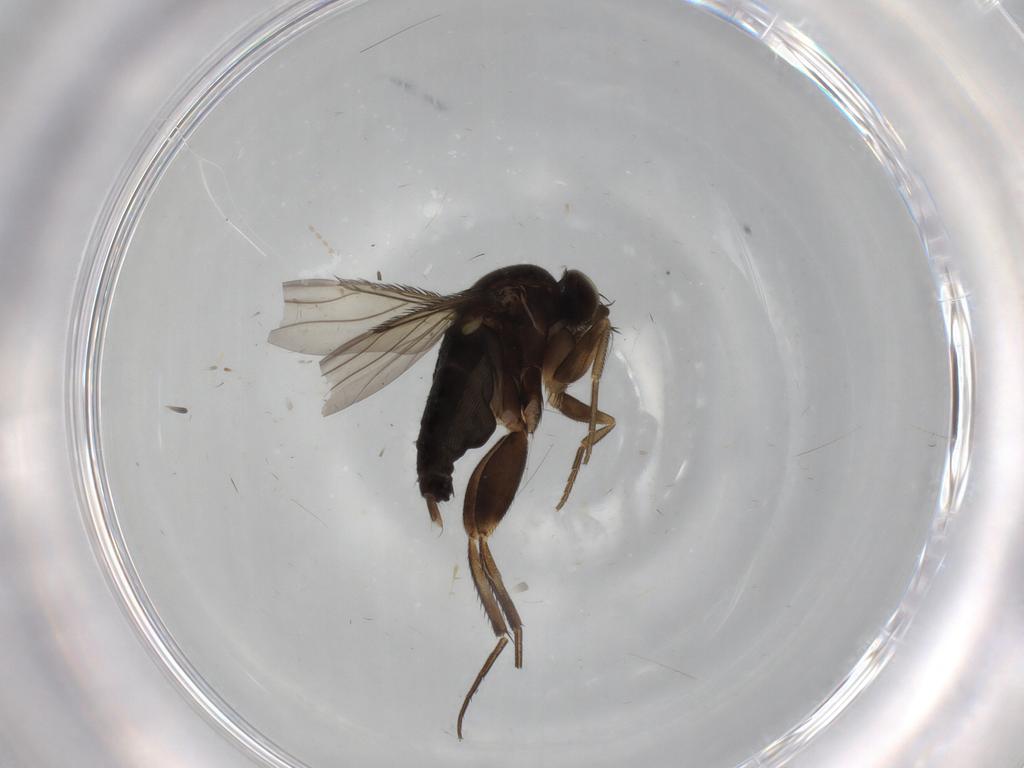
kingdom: Animalia
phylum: Arthropoda
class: Insecta
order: Diptera
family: Phoridae
